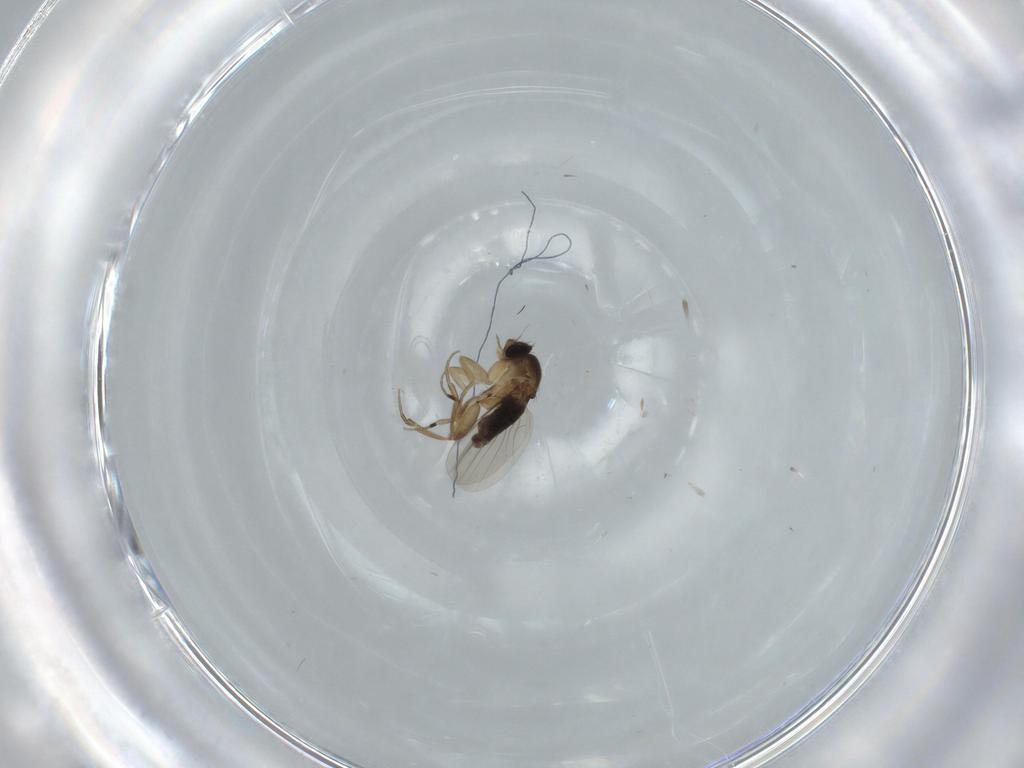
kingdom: Animalia
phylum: Arthropoda
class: Insecta
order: Diptera
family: Phoridae
